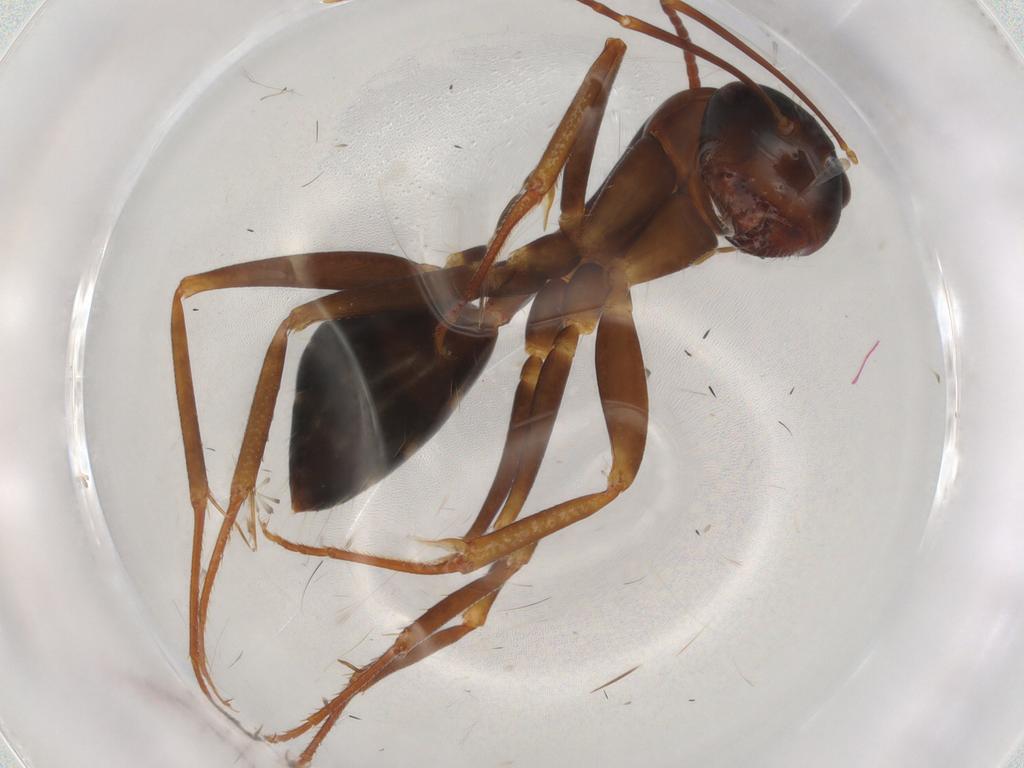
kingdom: Animalia
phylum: Arthropoda
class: Insecta
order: Hymenoptera
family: Formicidae
